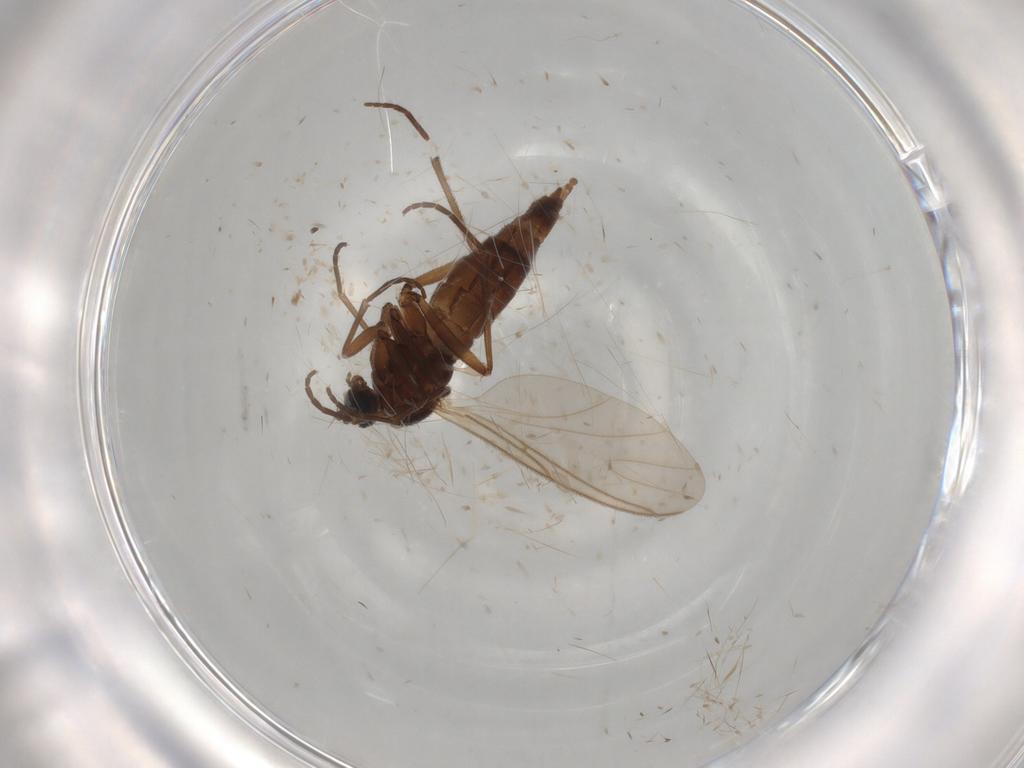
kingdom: Animalia
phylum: Arthropoda
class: Insecta
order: Diptera
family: Sciaridae
